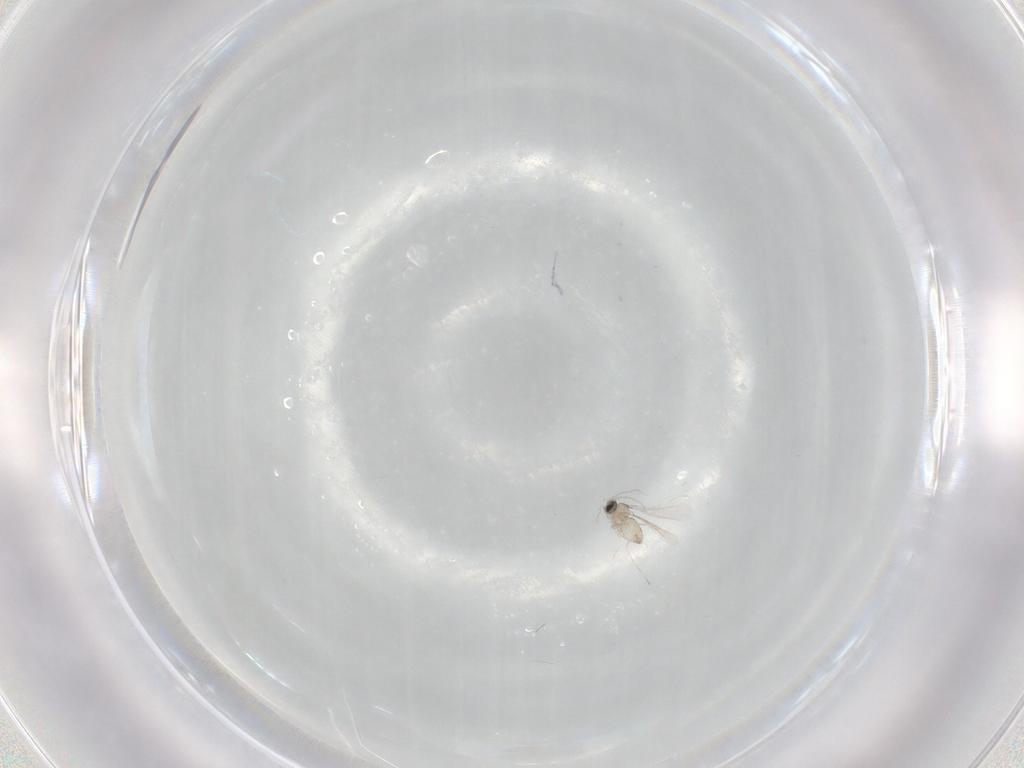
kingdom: Animalia
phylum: Arthropoda
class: Insecta
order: Diptera
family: Cecidomyiidae
